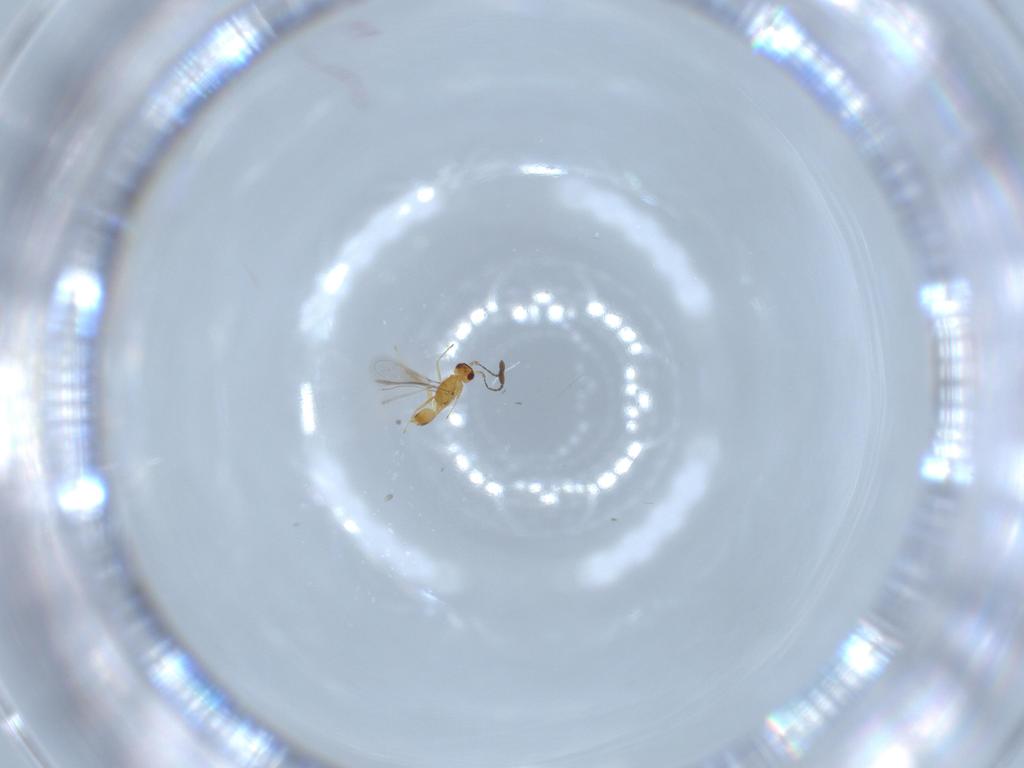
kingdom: Animalia
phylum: Arthropoda
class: Insecta
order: Hymenoptera
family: Mymaridae
